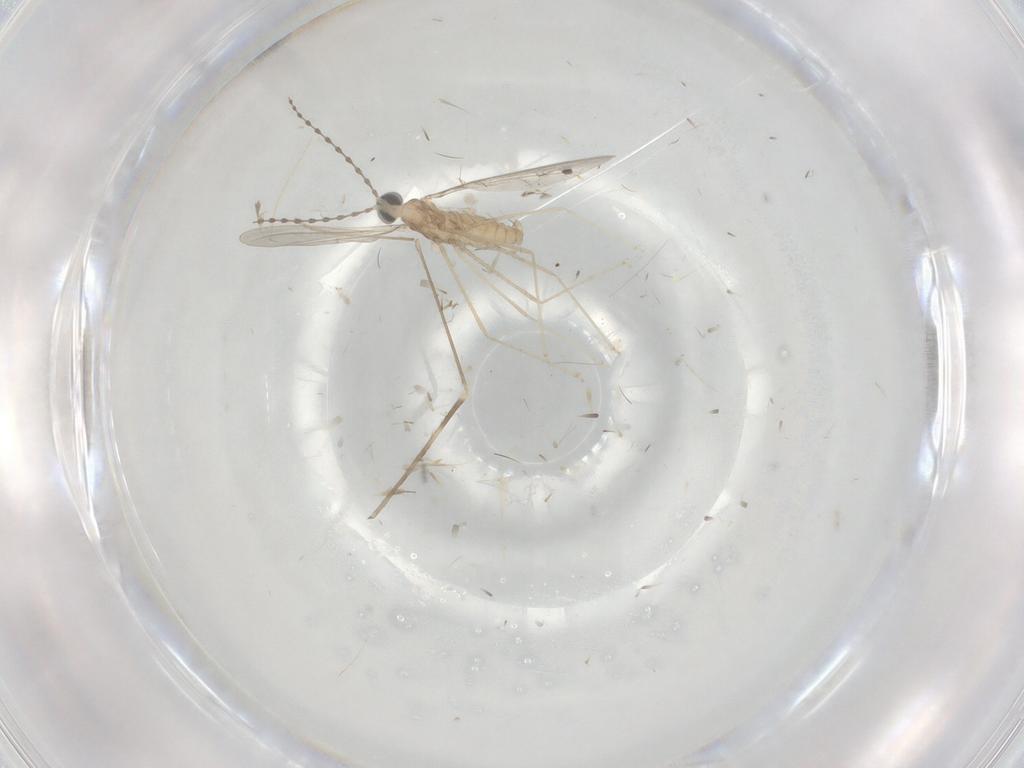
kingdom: Animalia
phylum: Arthropoda
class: Insecta
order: Diptera
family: Cecidomyiidae
